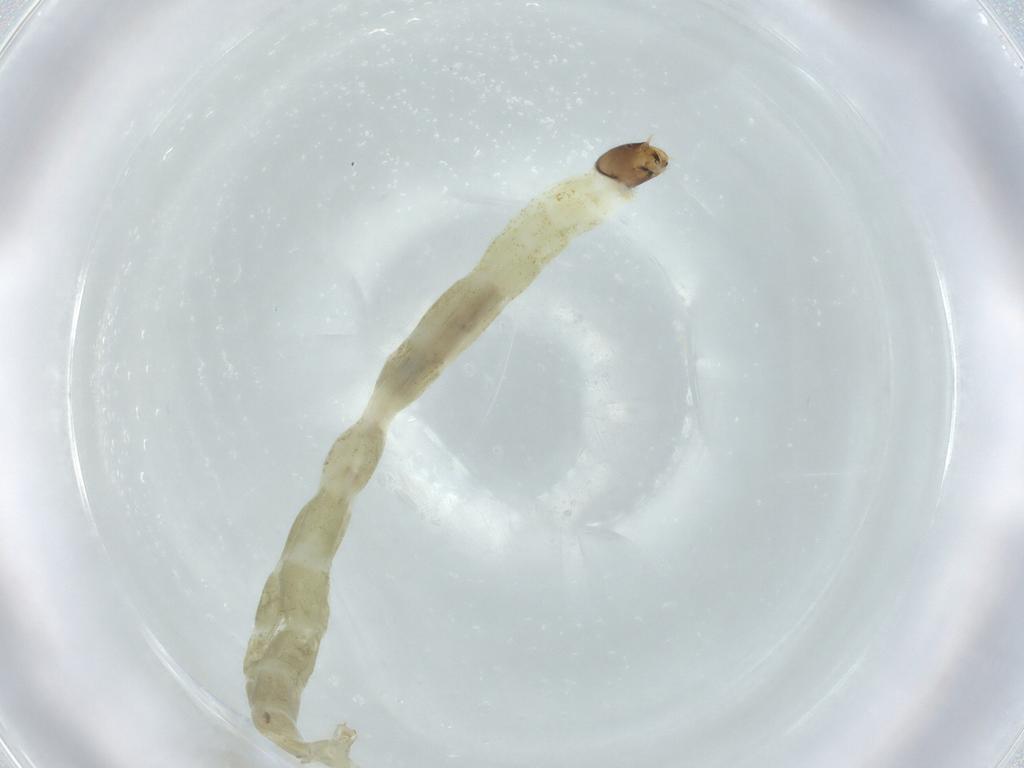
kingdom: Animalia
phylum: Arthropoda
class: Insecta
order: Diptera
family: Chironomidae
